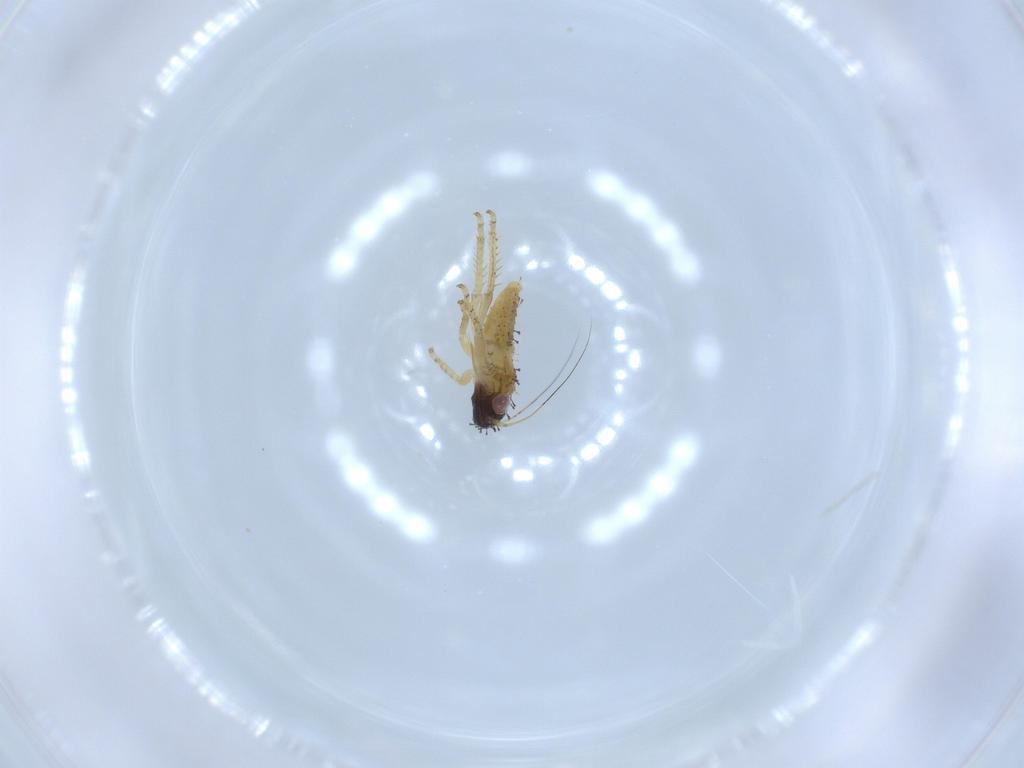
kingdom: Animalia
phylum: Arthropoda
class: Insecta
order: Hemiptera
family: Cicadellidae
